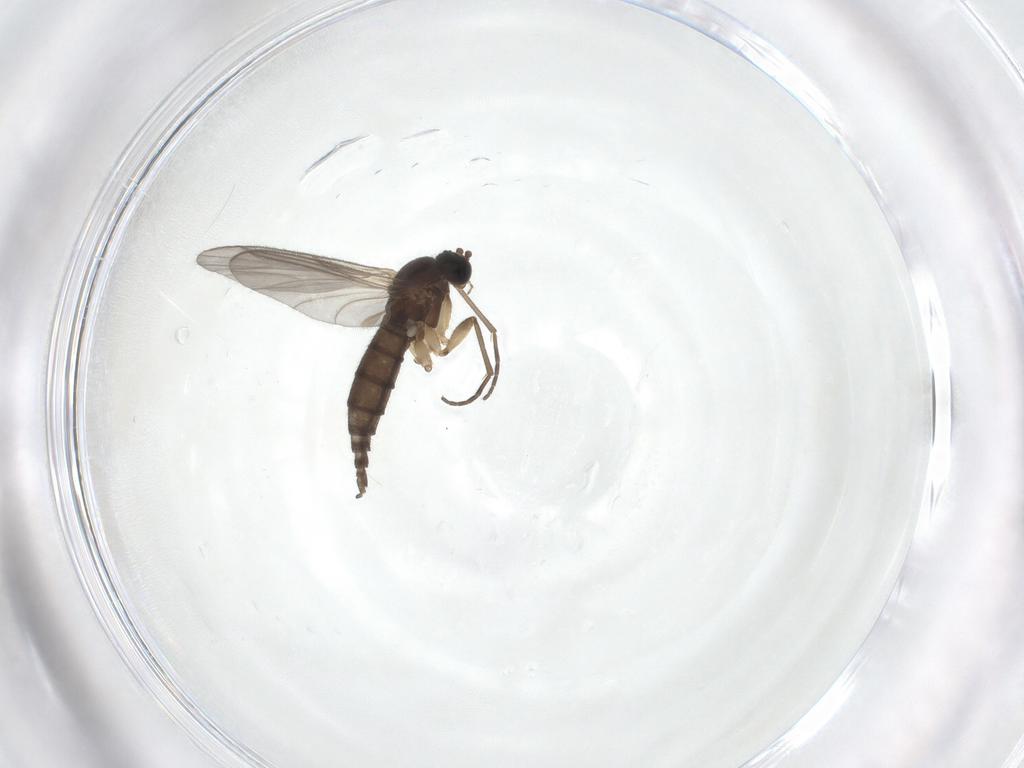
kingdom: Animalia
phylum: Arthropoda
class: Insecta
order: Diptera
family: Sciaridae
